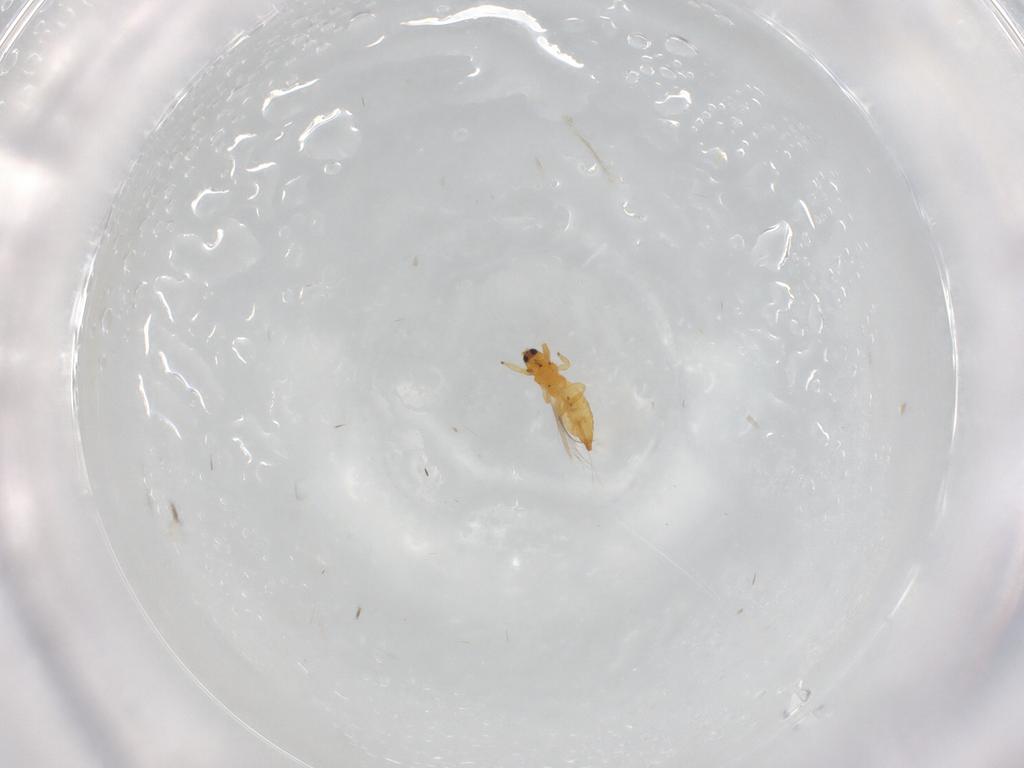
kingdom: Animalia
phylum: Arthropoda
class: Insecta
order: Thysanoptera
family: Thripidae
